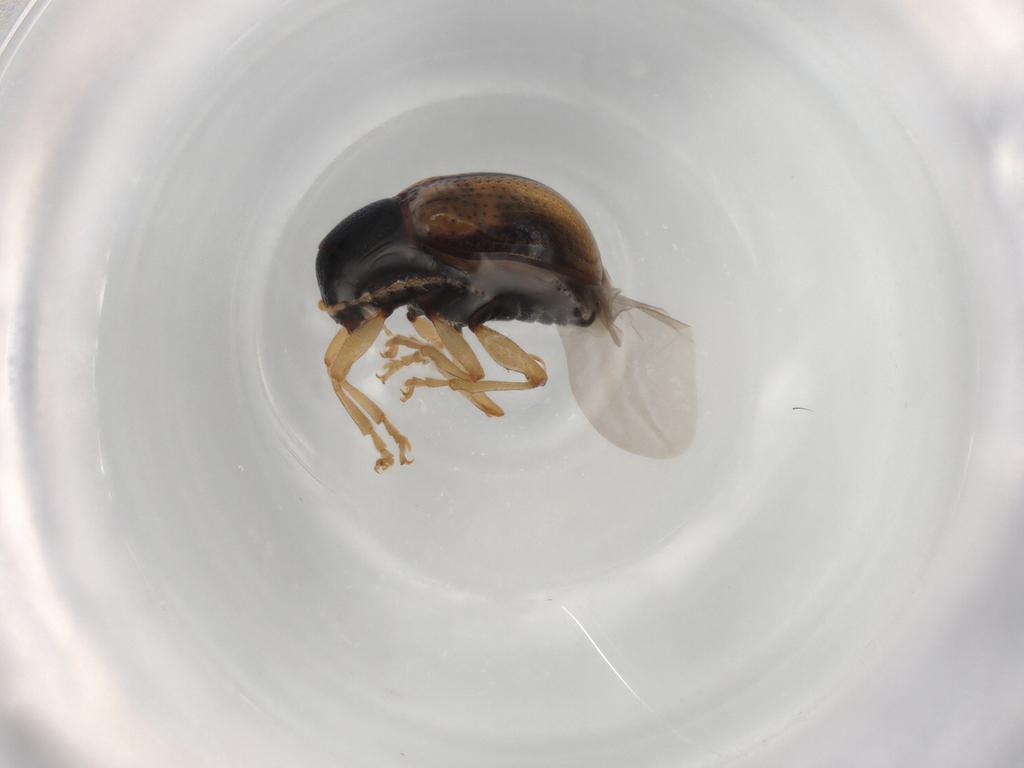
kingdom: Animalia
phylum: Arthropoda
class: Insecta
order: Coleoptera
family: Chrysomelidae
